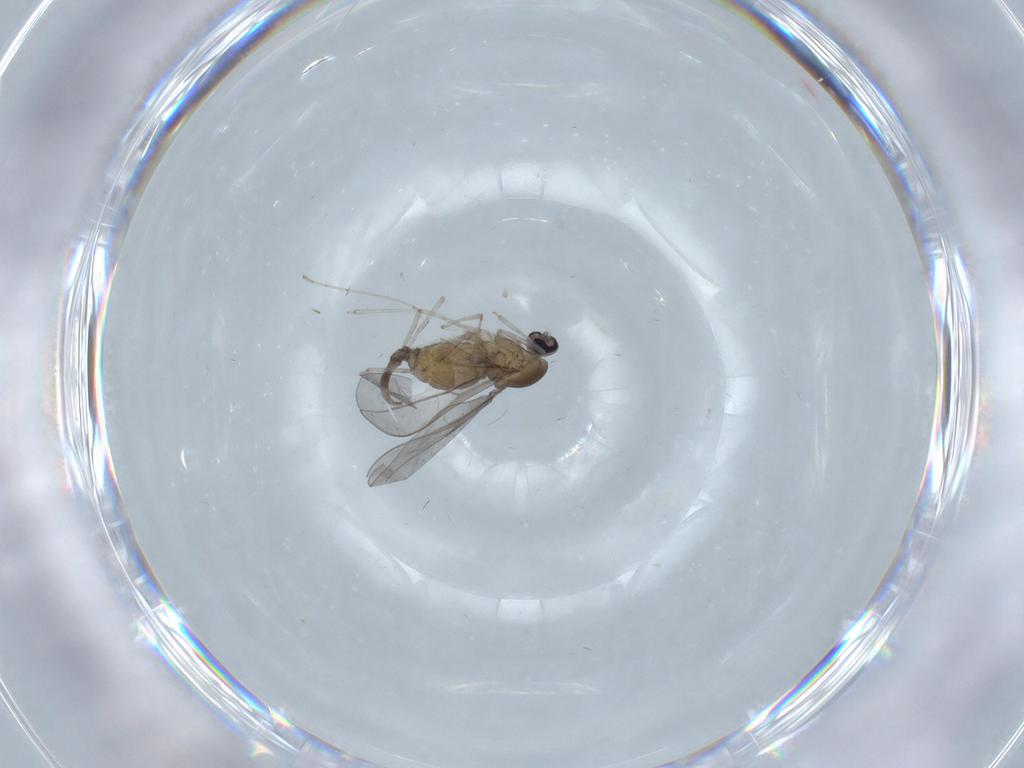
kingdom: Animalia
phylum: Arthropoda
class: Insecta
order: Diptera
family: Cecidomyiidae
